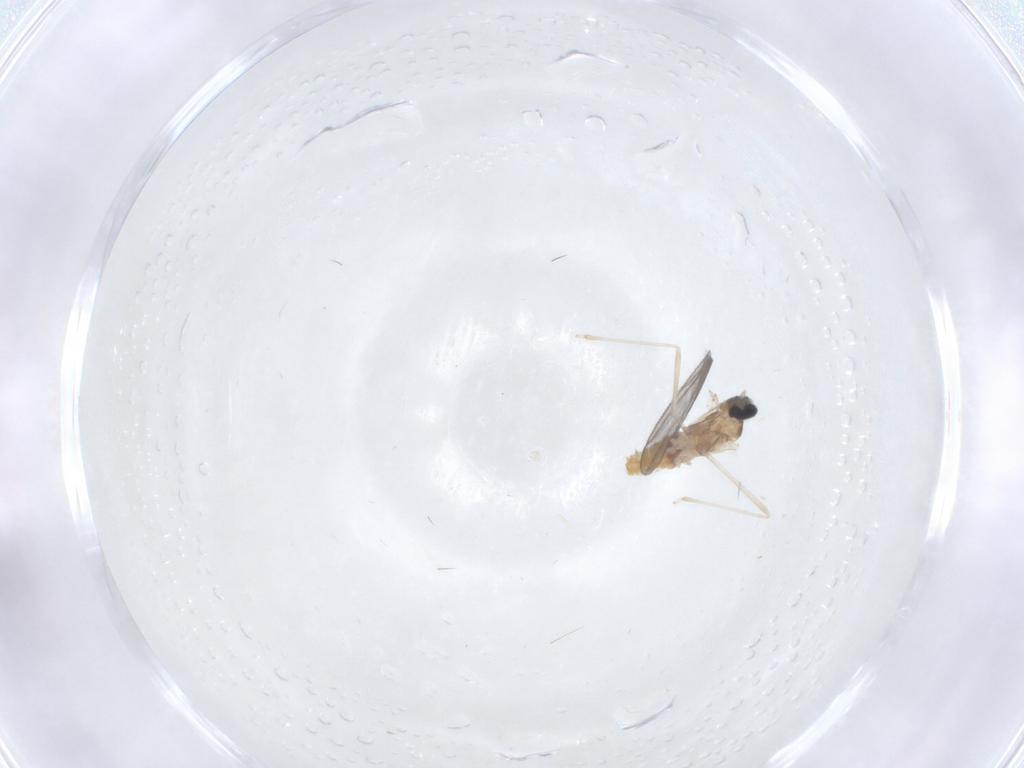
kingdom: Animalia
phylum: Arthropoda
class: Insecta
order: Diptera
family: Cecidomyiidae
